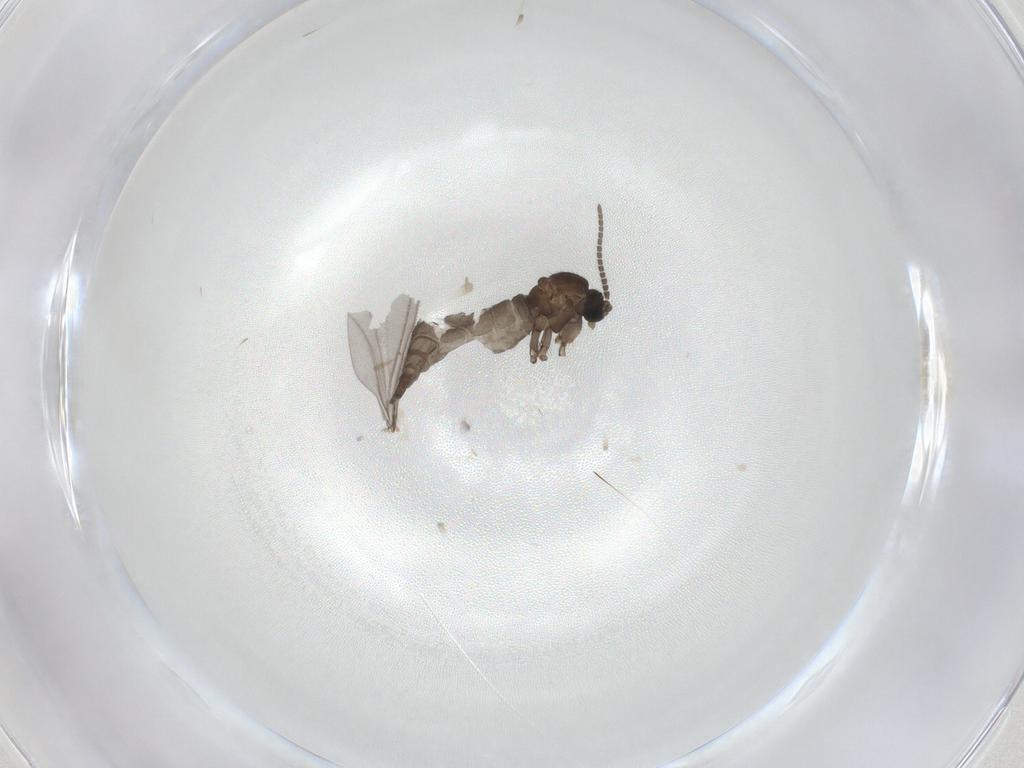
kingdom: Animalia
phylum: Arthropoda
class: Insecta
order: Diptera
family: Sciaridae
